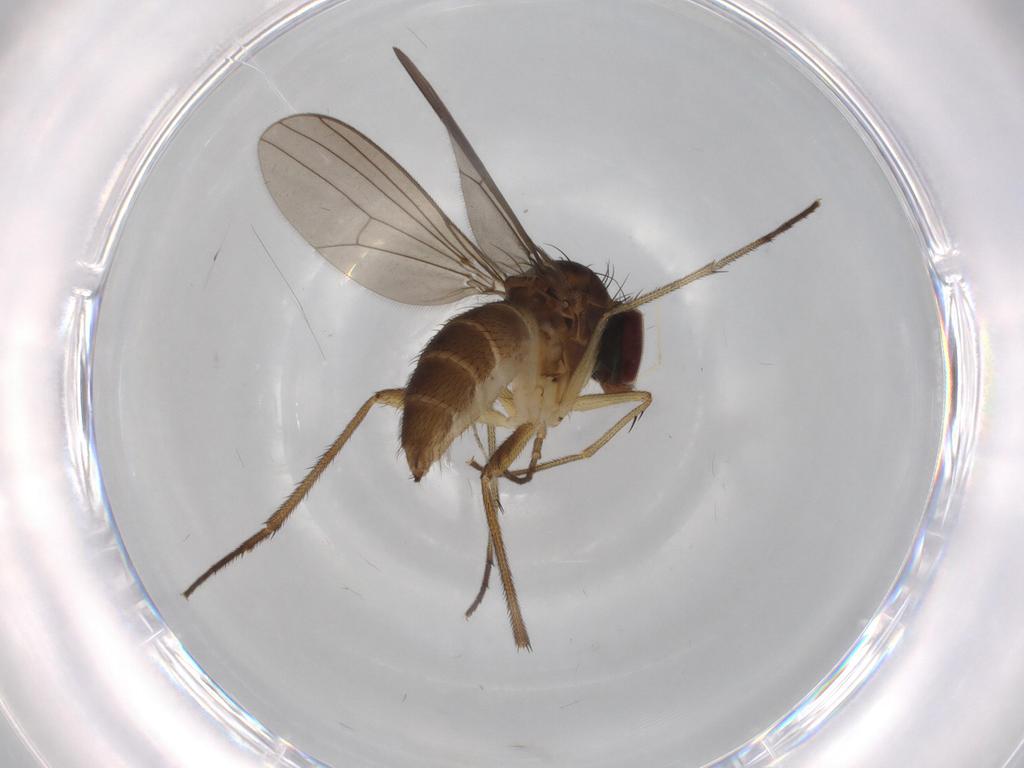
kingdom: Animalia
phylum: Arthropoda
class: Insecta
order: Diptera
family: Dolichopodidae
